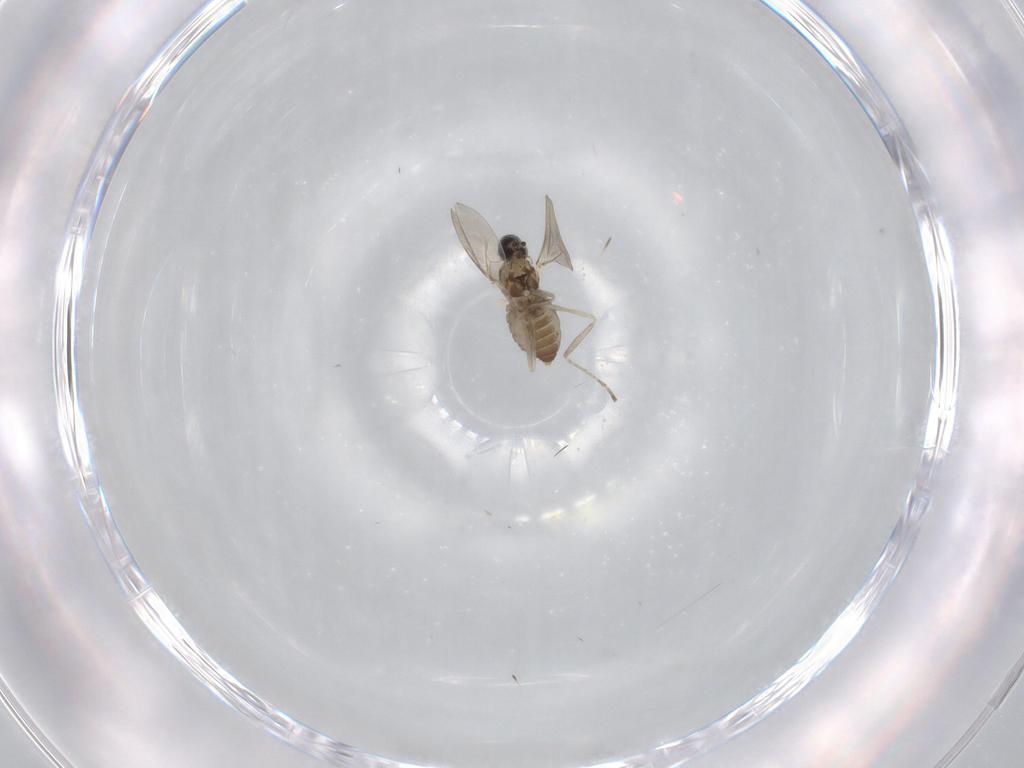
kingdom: Animalia
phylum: Arthropoda
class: Insecta
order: Diptera
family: Cecidomyiidae
